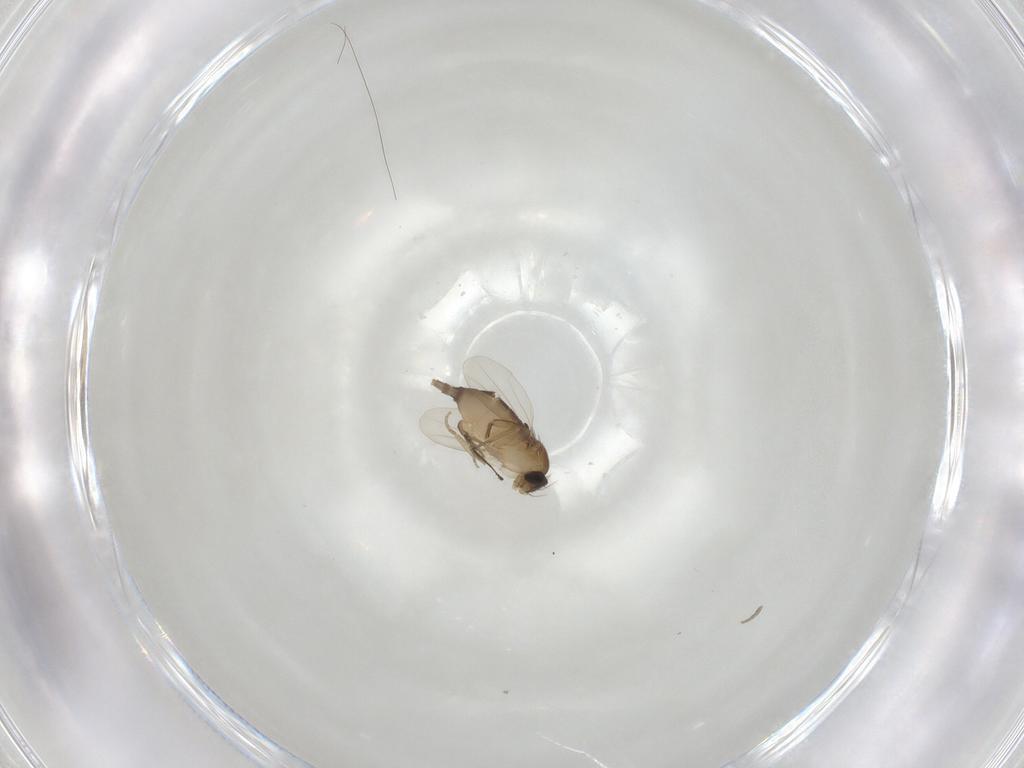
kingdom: Animalia
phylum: Arthropoda
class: Insecta
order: Diptera
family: Phoridae
